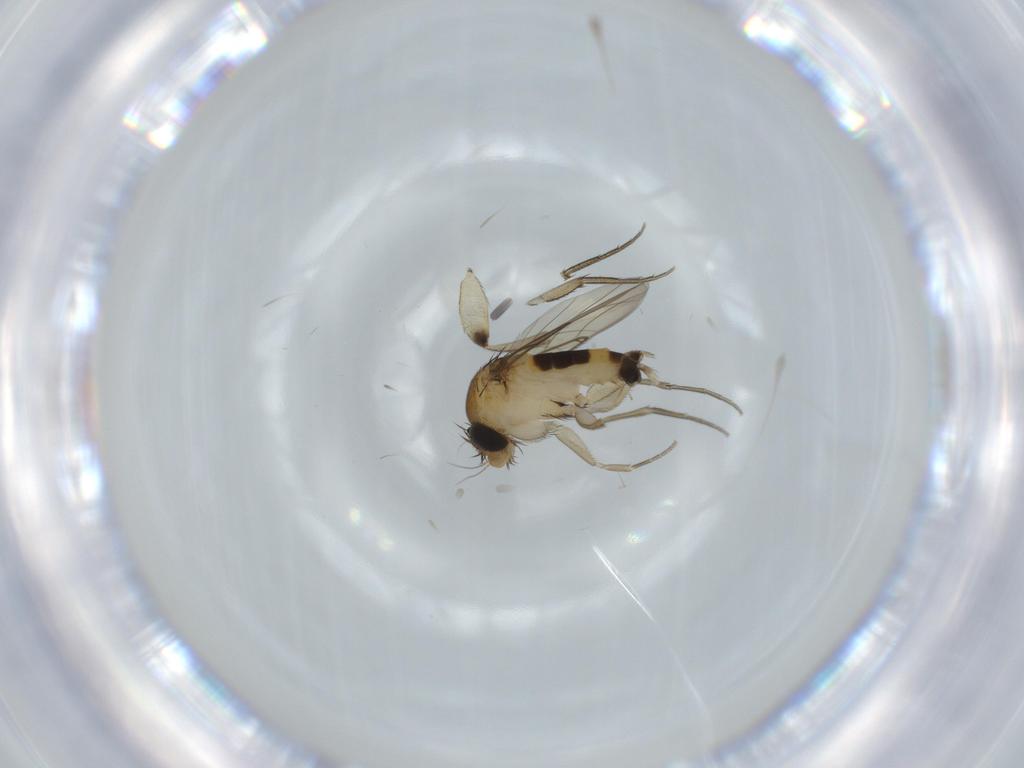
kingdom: Animalia
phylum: Arthropoda
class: Insecta
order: Diptera
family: Phoridae
